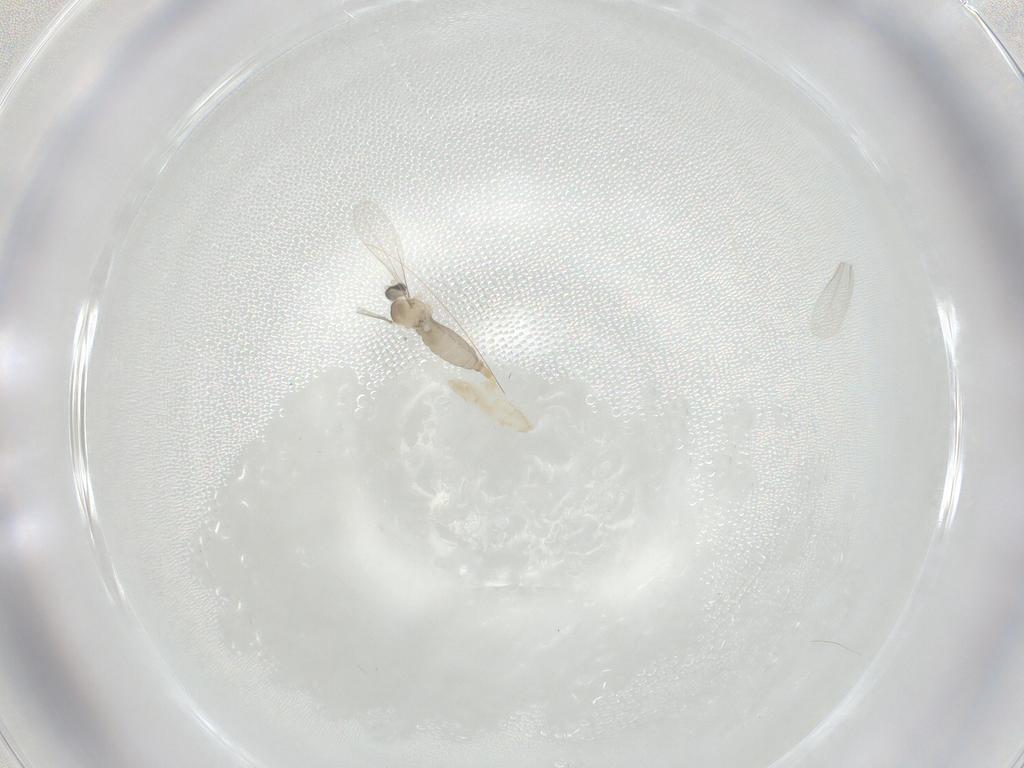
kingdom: Animalia
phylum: Arthropoda
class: Insecta
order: Diptera
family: Cecidomyiidae
